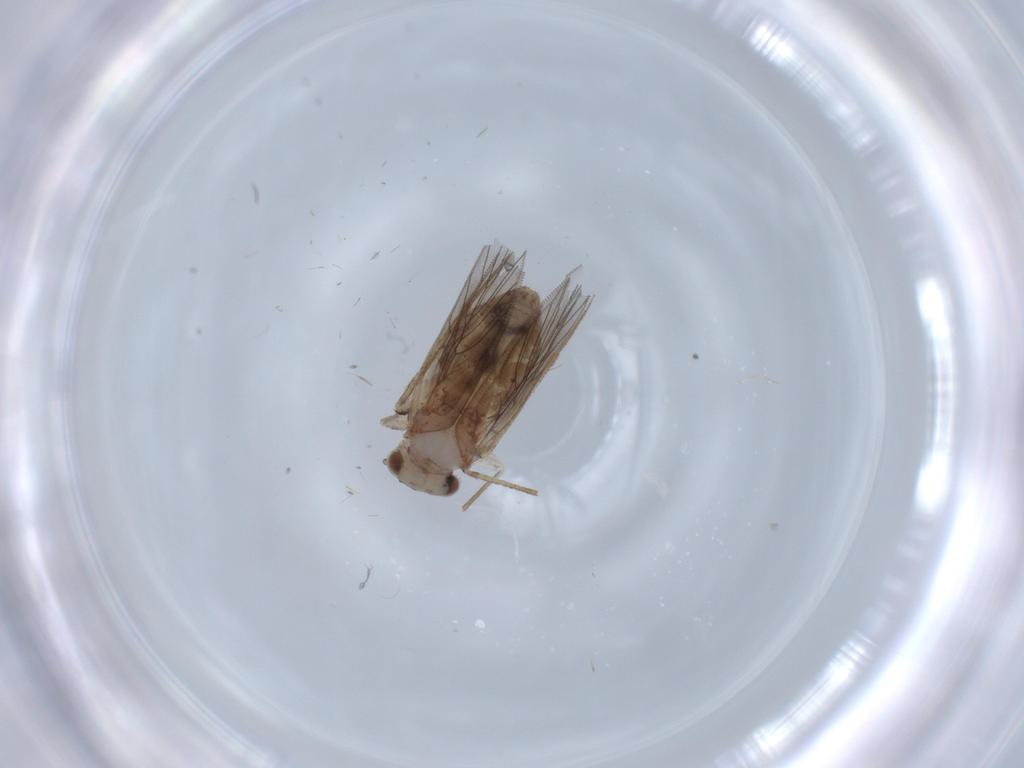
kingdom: Animalia
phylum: Arthropoda
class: Insecta
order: Psocodea
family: Lepidopsocidae
